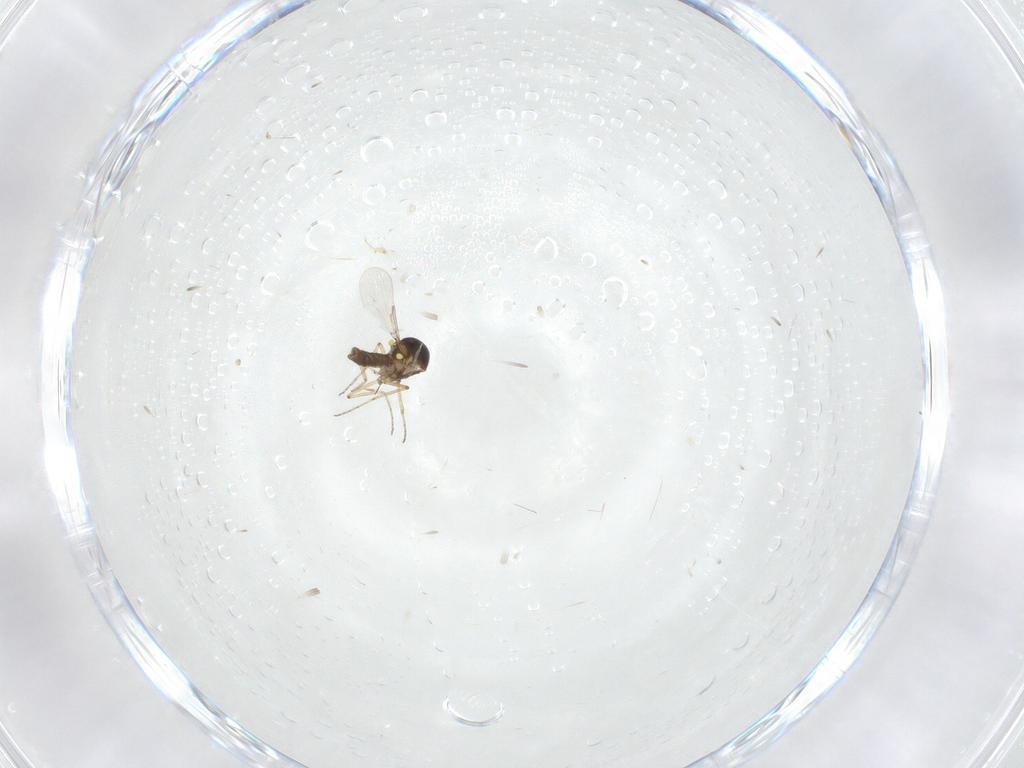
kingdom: Animalia
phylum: Arthropoda
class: Insecta
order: Diptera
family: Ceratopogonidae
